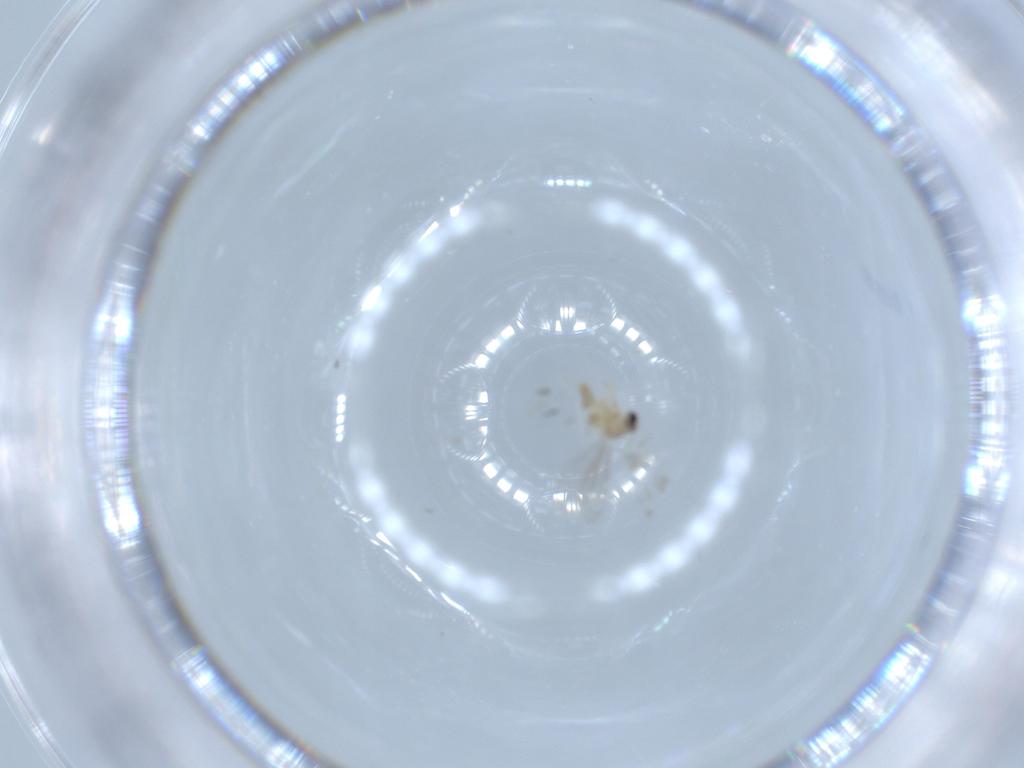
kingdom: Animalia
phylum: Arthropoda
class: Insecta
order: Diptera
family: Cecidomyiidae
